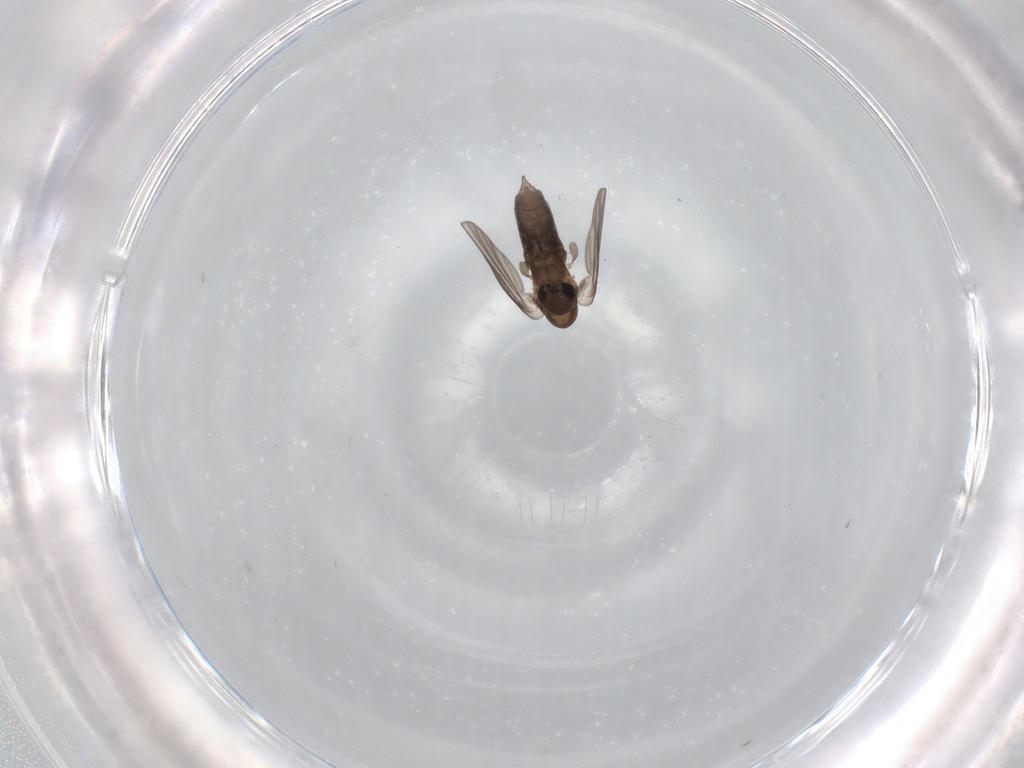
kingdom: Animalia
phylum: Arthropoda
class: Insecta
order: Diptera
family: Cecidomyiidae
